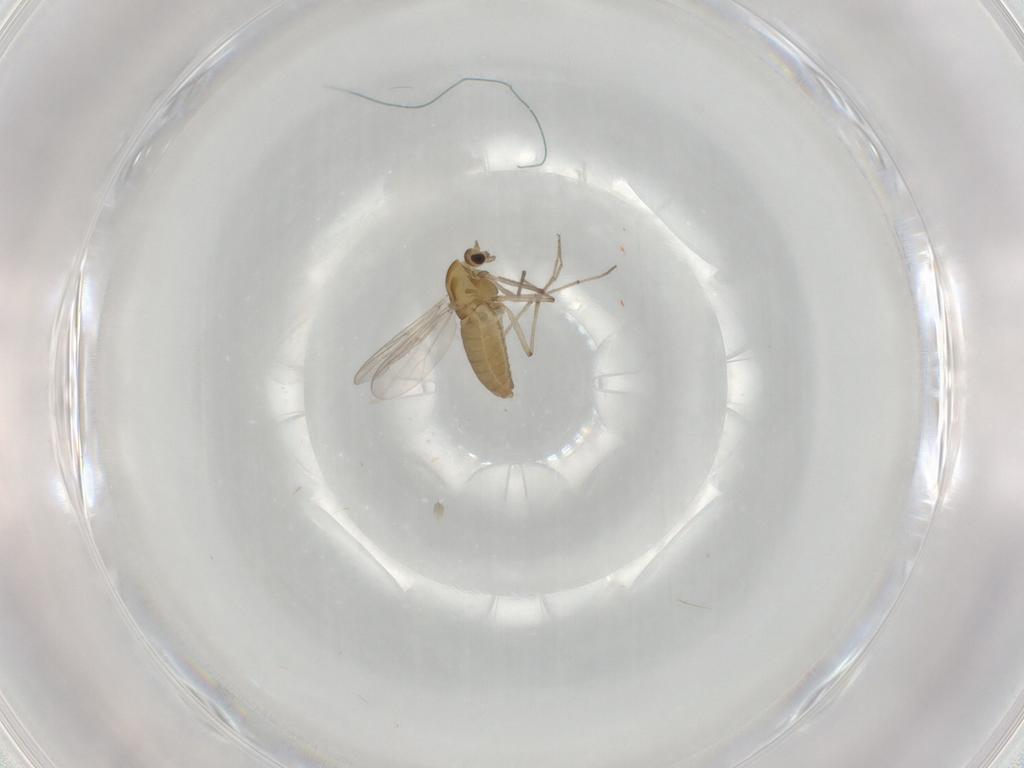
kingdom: Animalia
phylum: Arthropoda
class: Insecta
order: Diptera
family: Chironomidae
